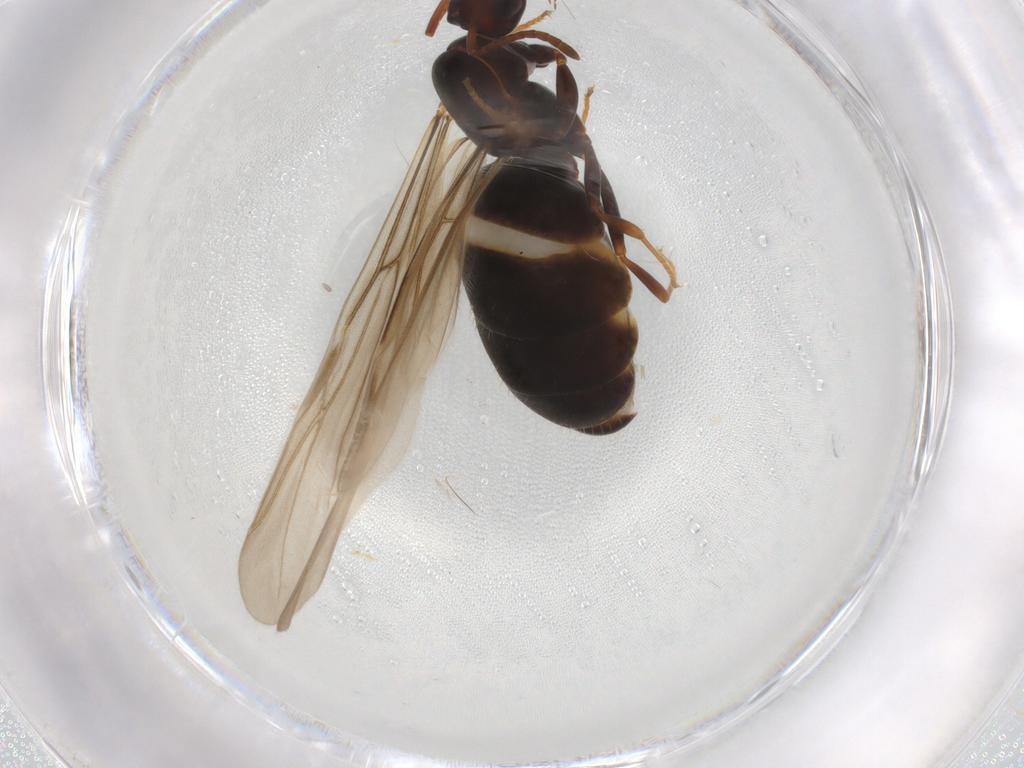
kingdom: Animalia
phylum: Arthropoda
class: Insecta
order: Hymenoptera
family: Formicidae
